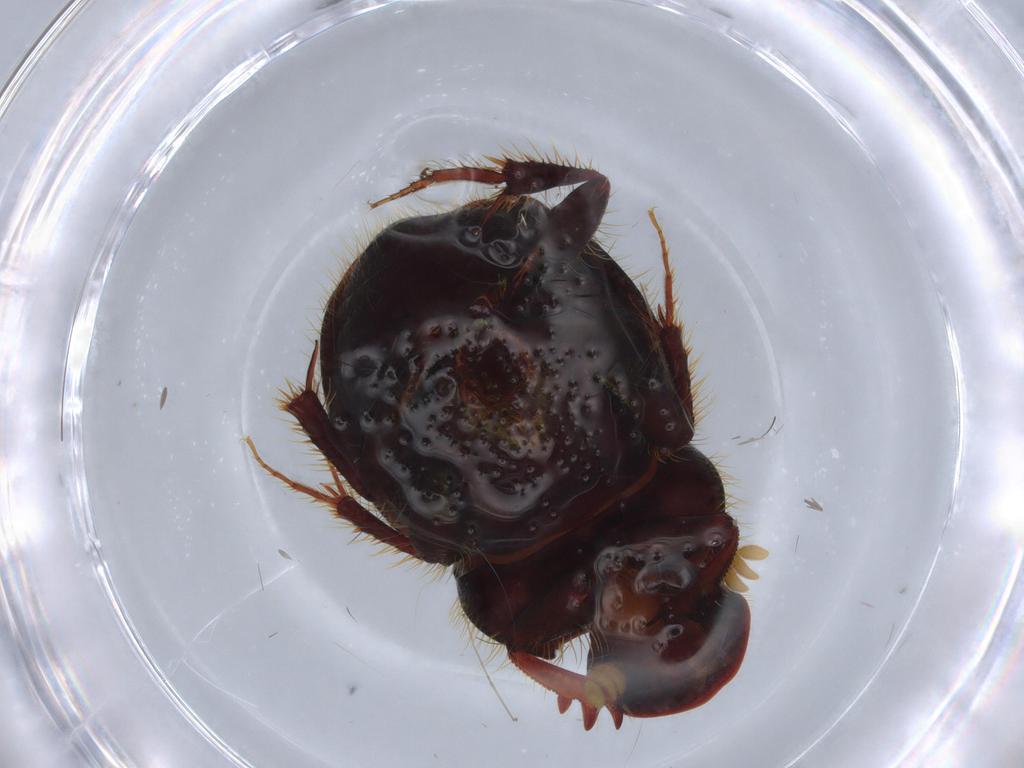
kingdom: Animalia
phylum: Arthropoda
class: Insecta
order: Coleoptera
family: Scarabaeidae
